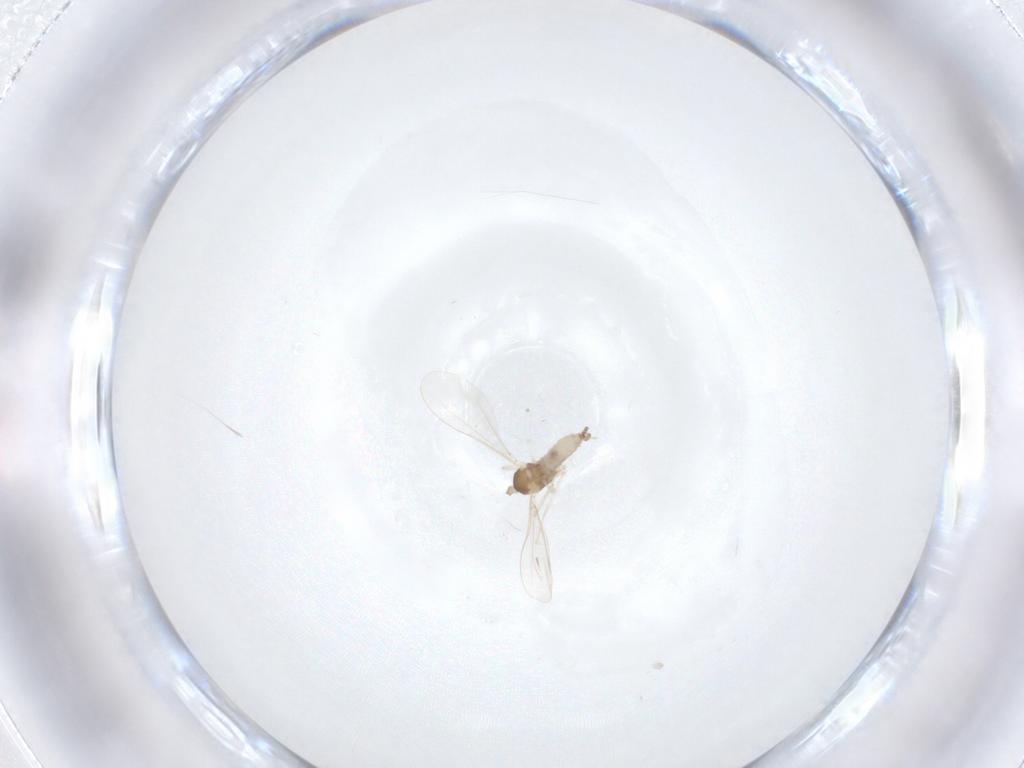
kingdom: Animalia
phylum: Arthropoda
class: Insecta
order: Diptera
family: Cecidomyiidae
